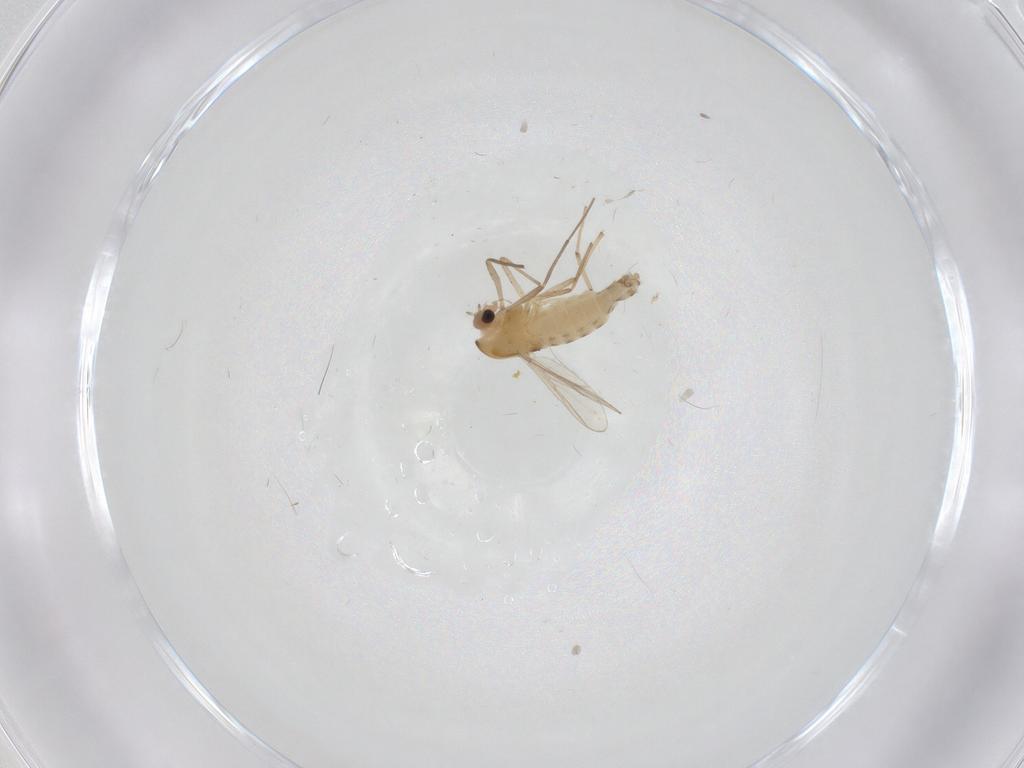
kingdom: Animalia
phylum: Arthropoda
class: Insecta
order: Diptera
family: Chironomidae
